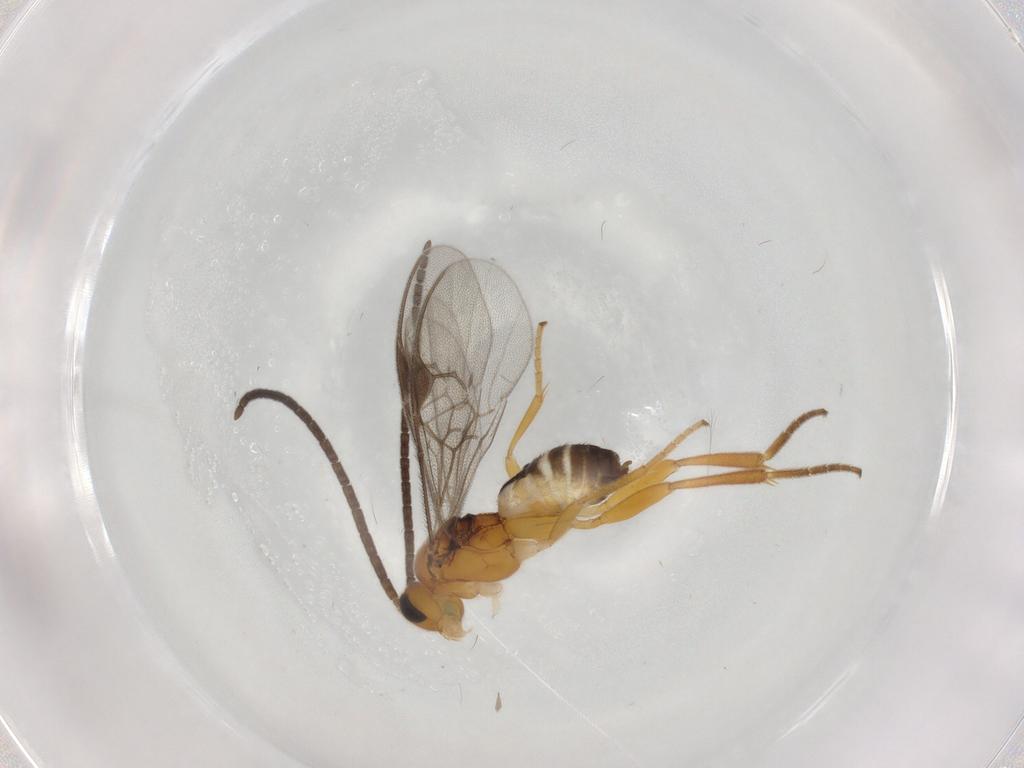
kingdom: Animalia
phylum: Arthropoda
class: Insecta
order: Hymenoptera
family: Braconidae
